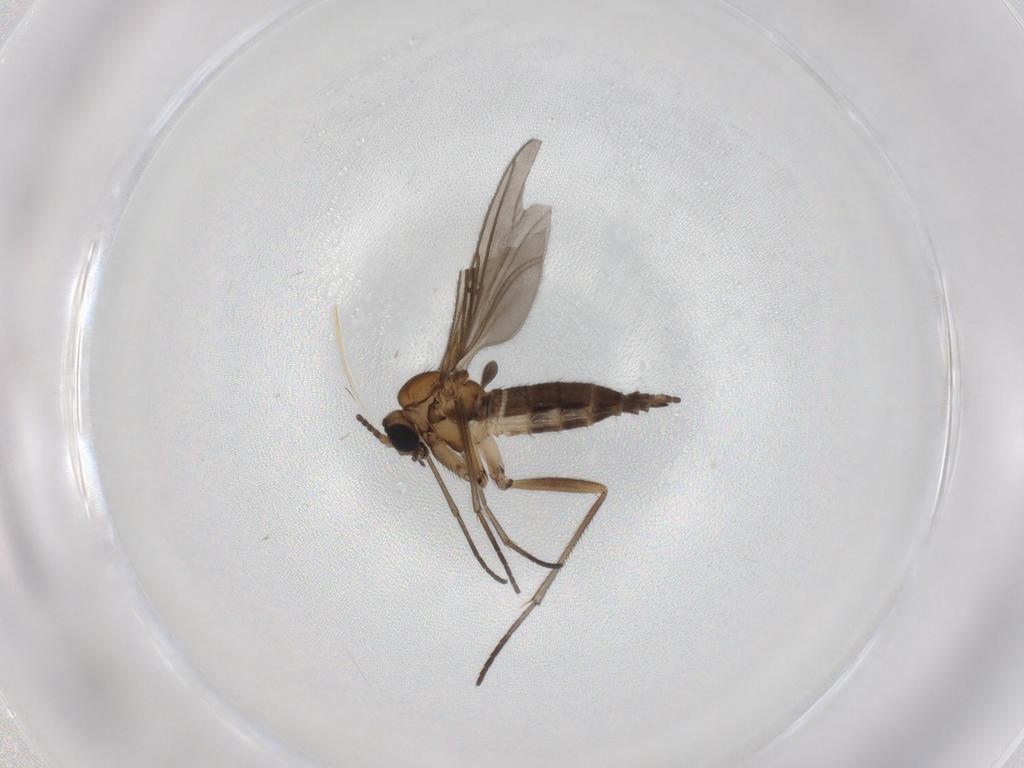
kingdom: Animalia
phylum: Arthropoda
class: Insecta
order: Diptera
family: Sciaridae
